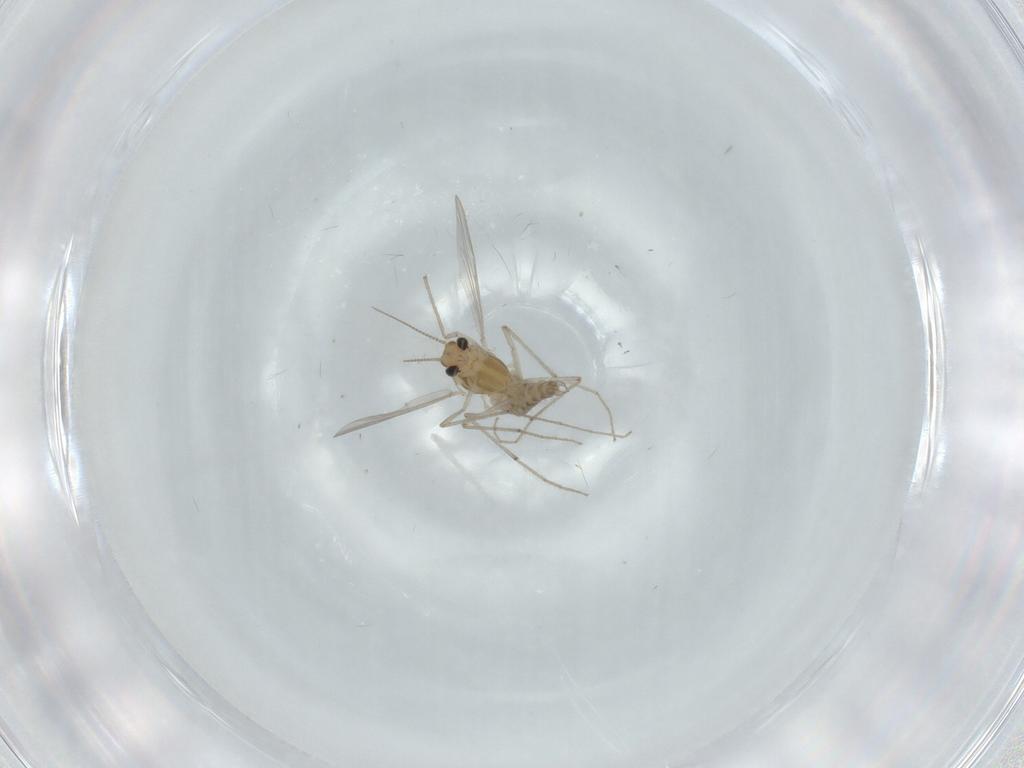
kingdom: Animalia
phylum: Arthropoda
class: Insecta
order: Diptera
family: Chironomidae
